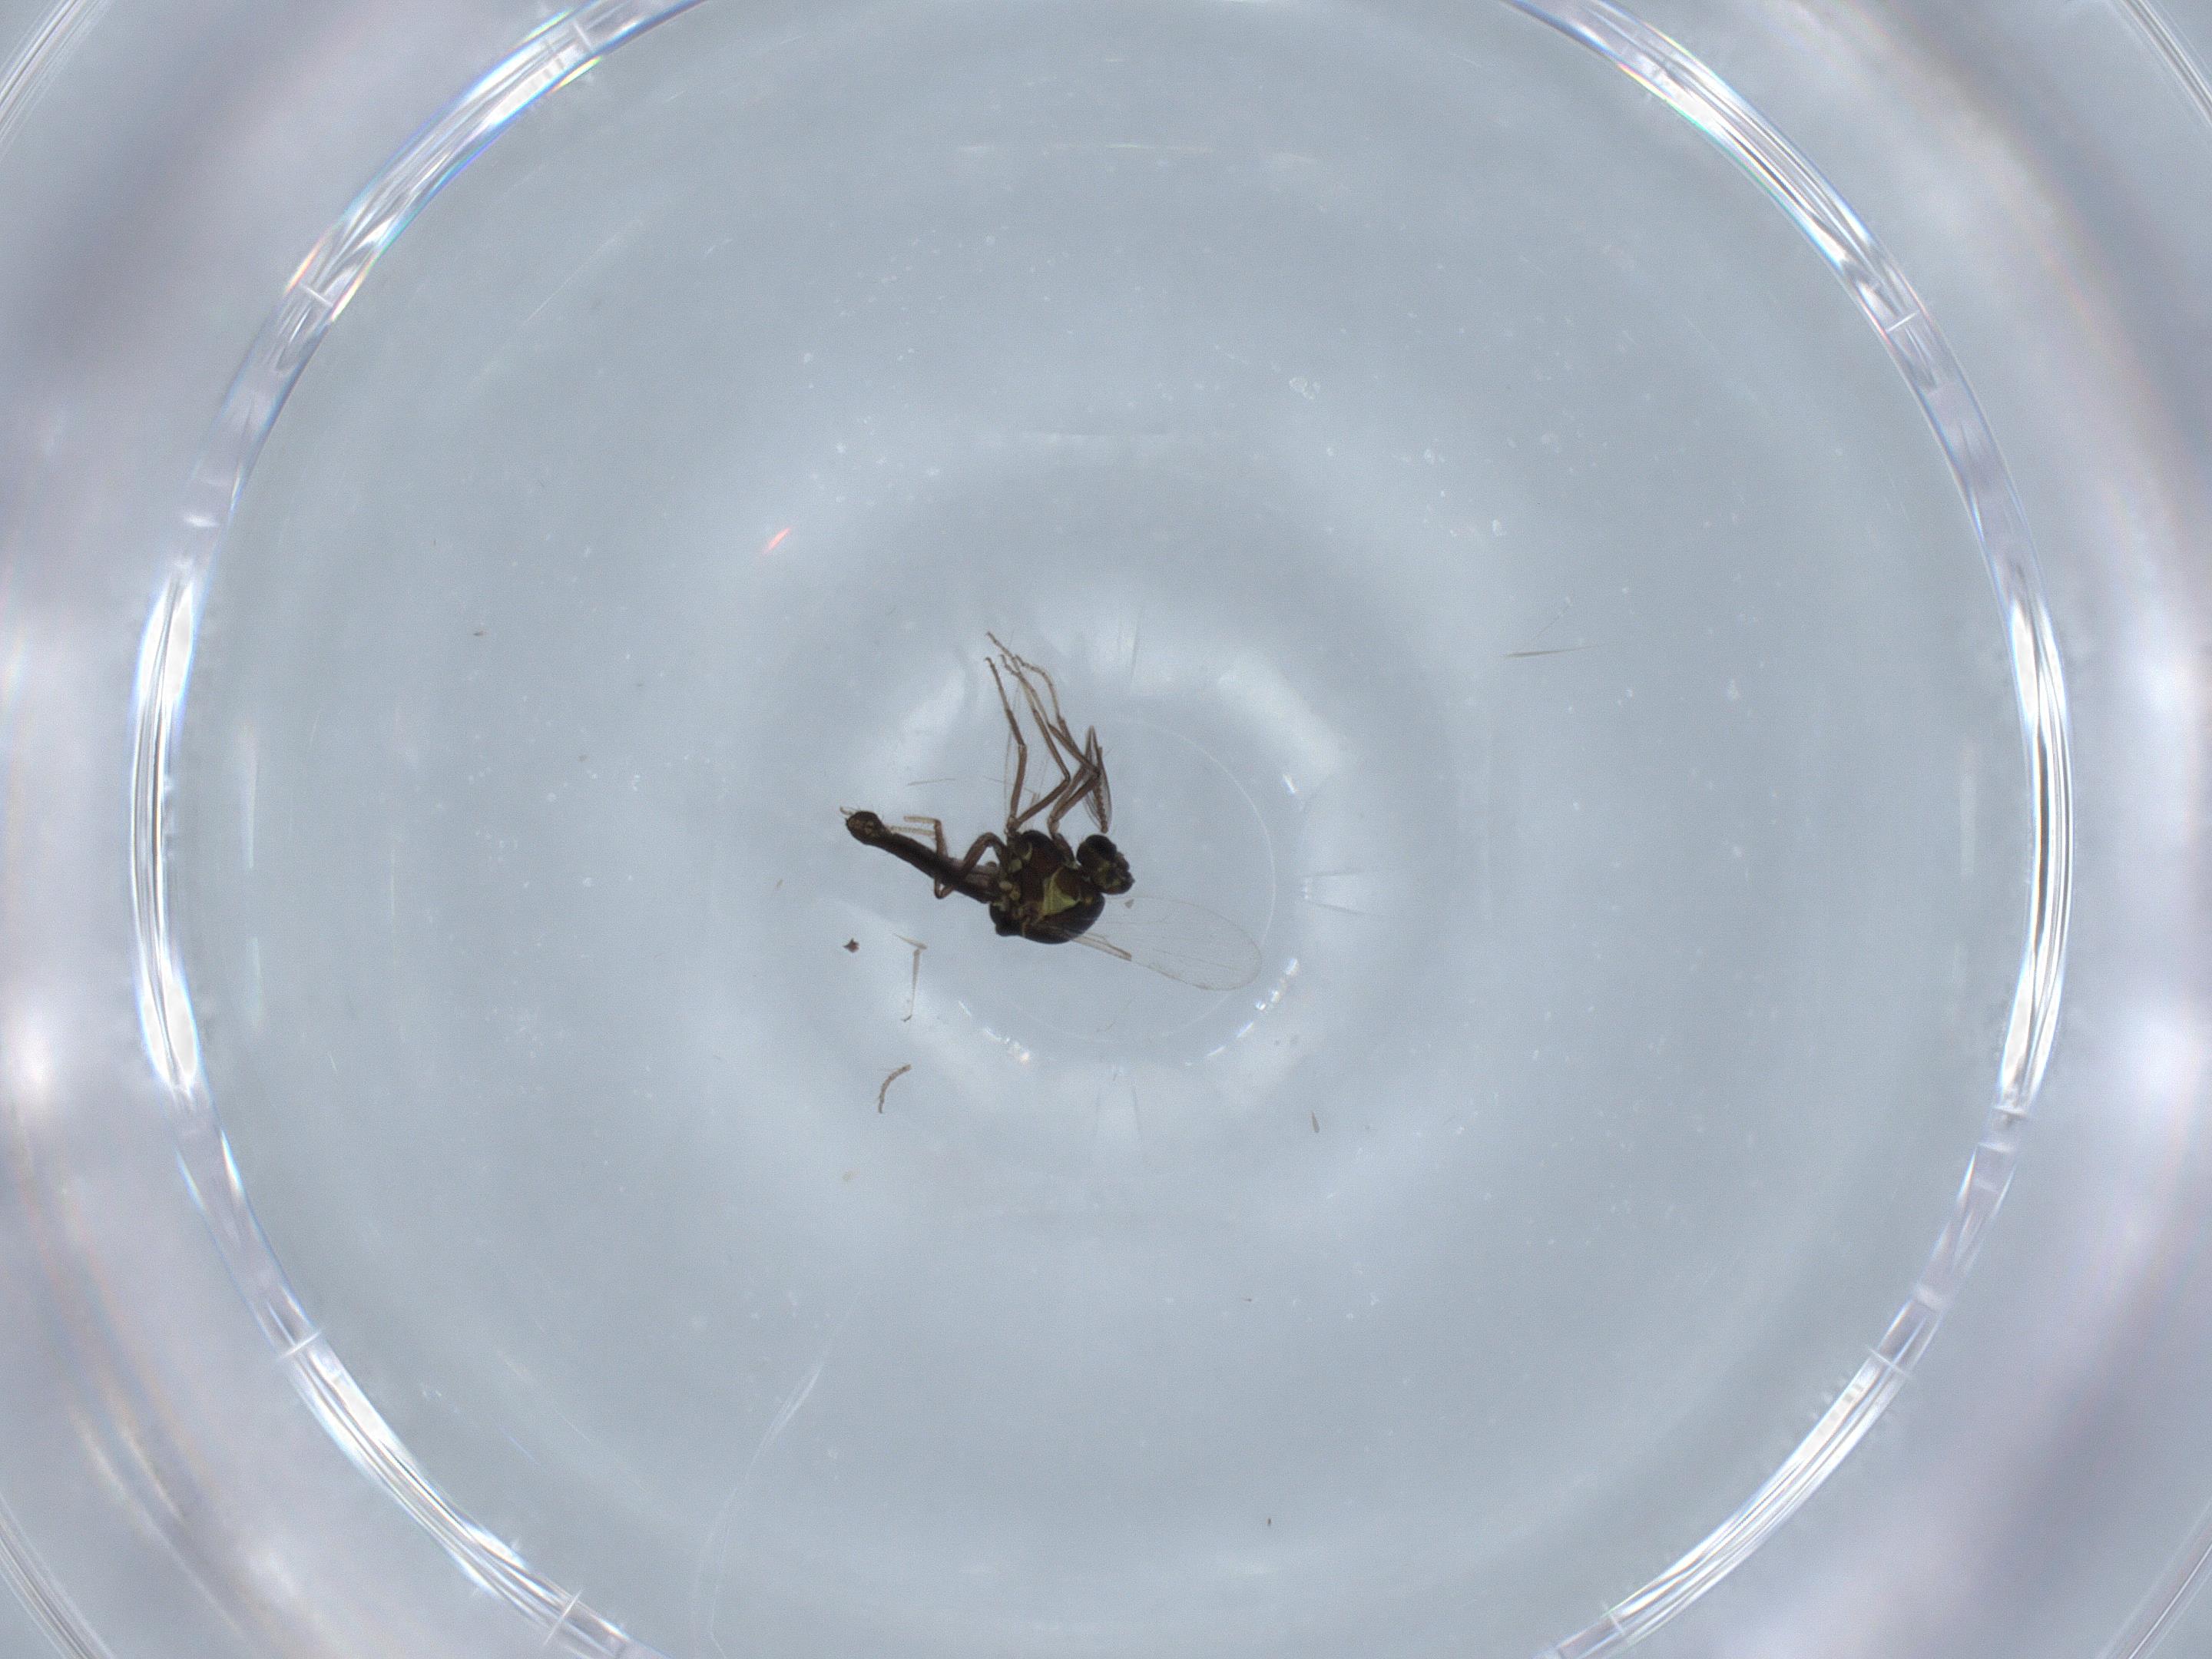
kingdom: Animalia
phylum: Arthropoda
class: Insecta
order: Diptera
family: Ceratopogonidae
